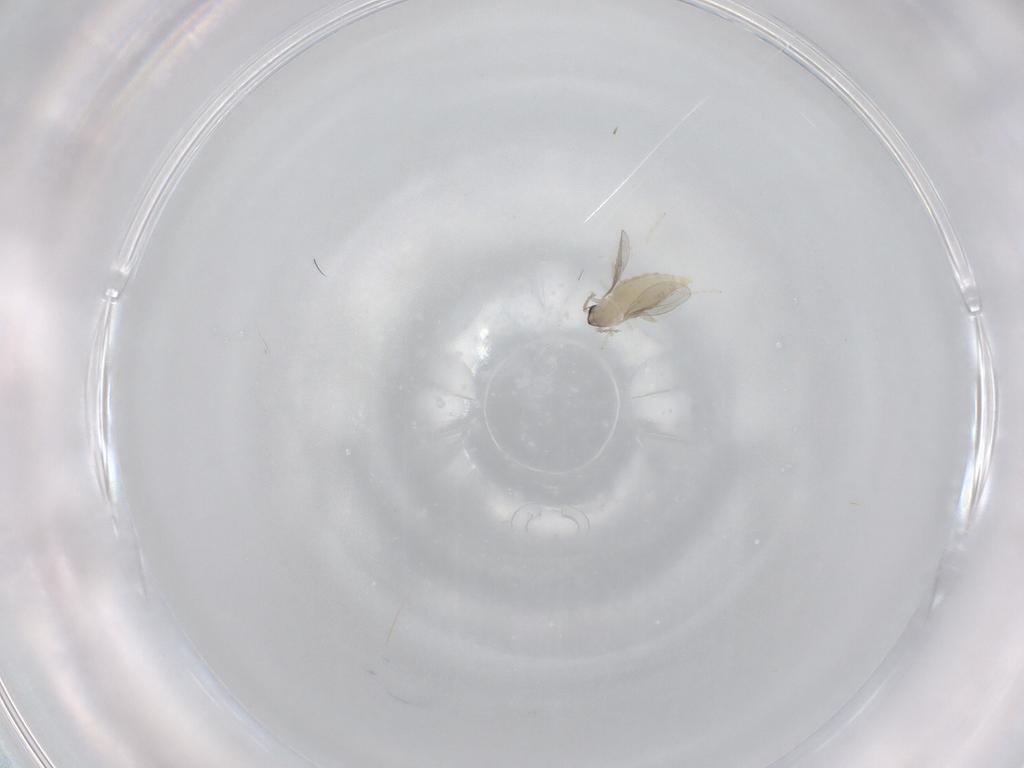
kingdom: Animalia
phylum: Arthropoda
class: Insecta
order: Diptera
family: Cecidomyiidae
